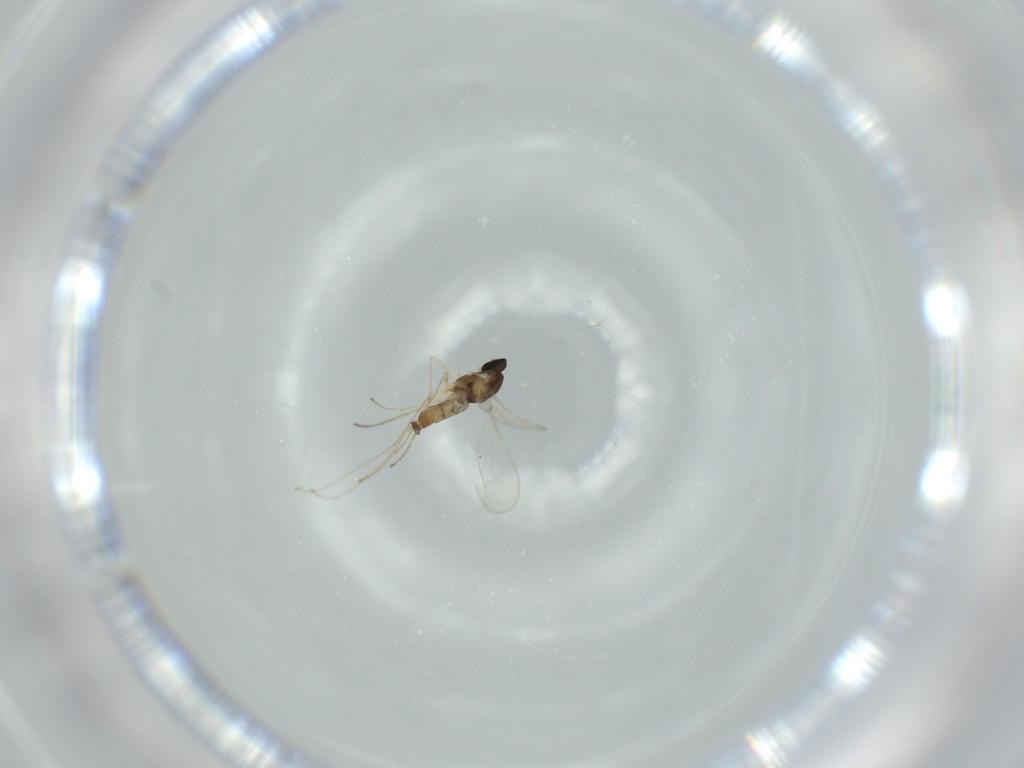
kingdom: Animalia
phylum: Arthropoda
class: Insecta
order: Diptera
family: Cecidomyiidae
